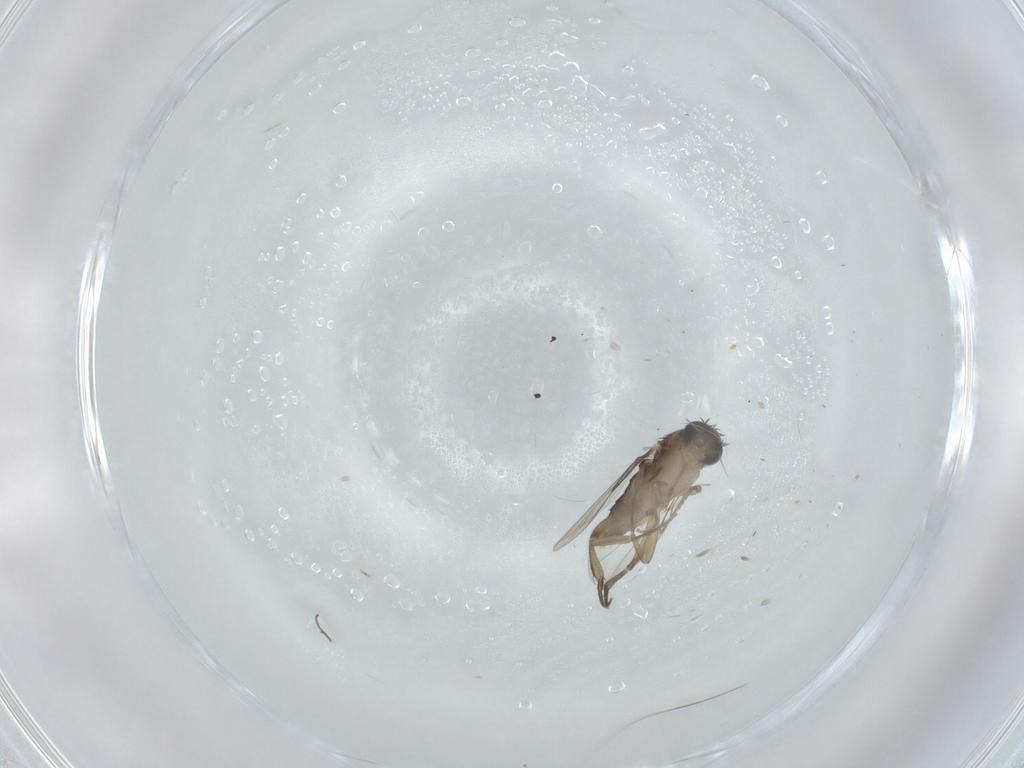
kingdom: Animalia
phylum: Arthropoda
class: Insecta
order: Diptera
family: Phoridae
